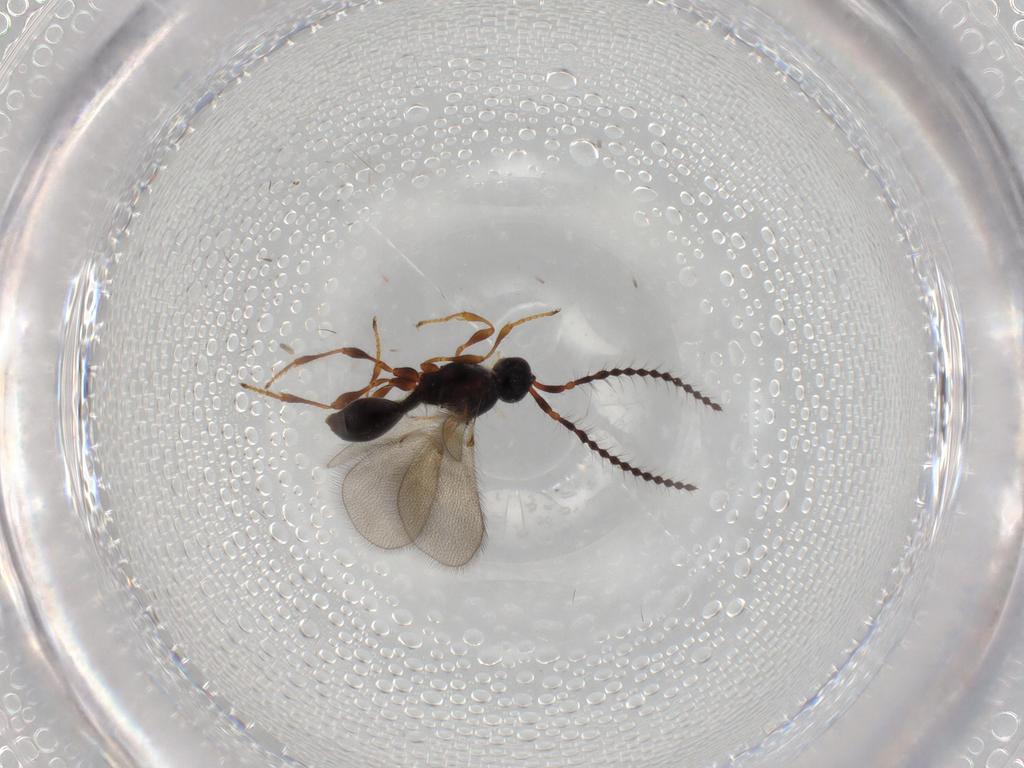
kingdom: Animalia
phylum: Arthropoda
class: Insecta
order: Hymenoptera
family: Diapriidae
